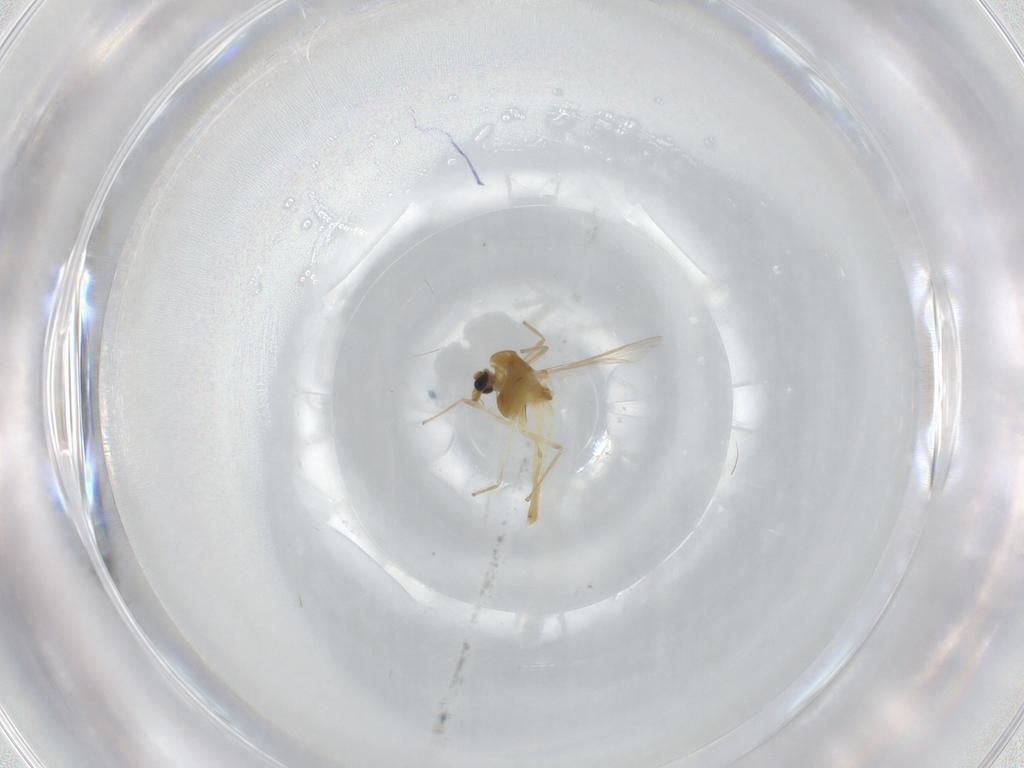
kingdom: Animalia
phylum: Arthropoda
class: Insecta
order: Diptera
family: Chironomidae
